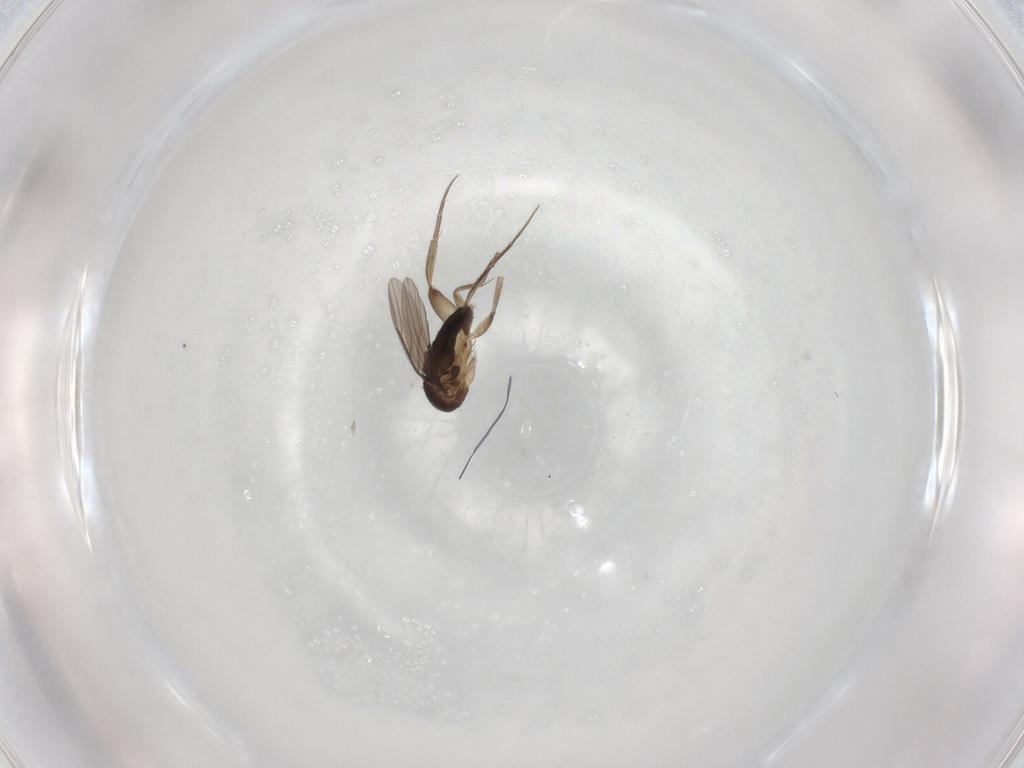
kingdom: Animalia
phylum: Arthropoda
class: Insecta
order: Diptera
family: Phoridae
